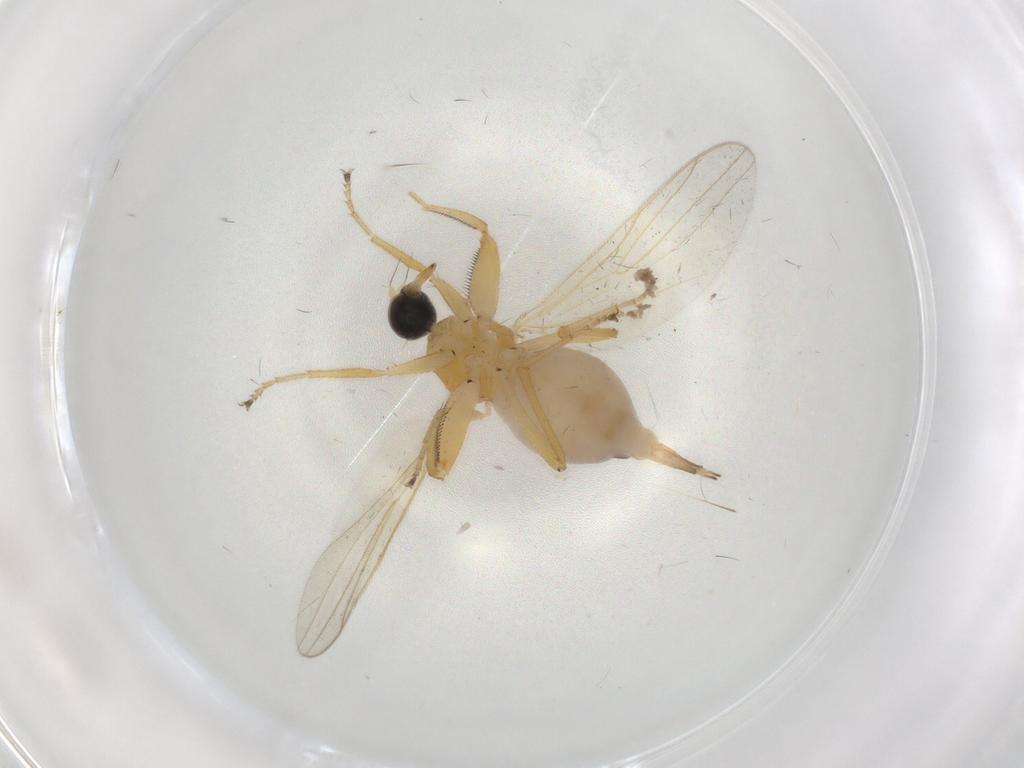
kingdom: Animalia
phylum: Arthropoda
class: Insecta
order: Diptera
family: Hybotidae
